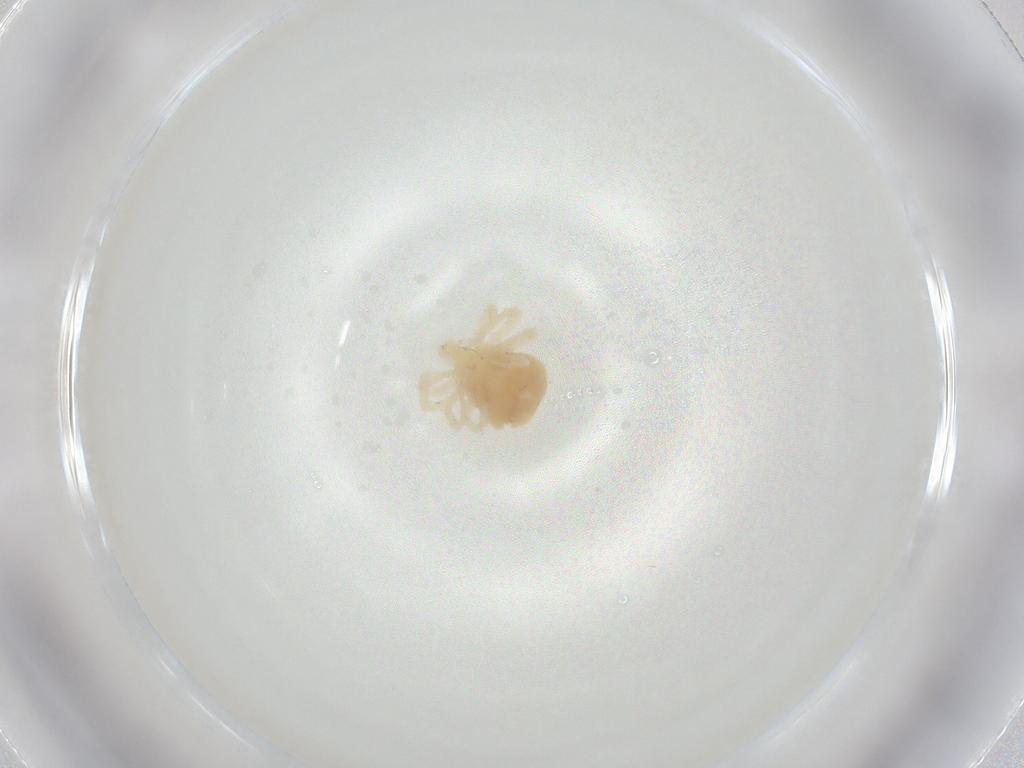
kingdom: Animalia
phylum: Arthropoda
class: Arachnida
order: Trombidiformes
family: Anystidae
